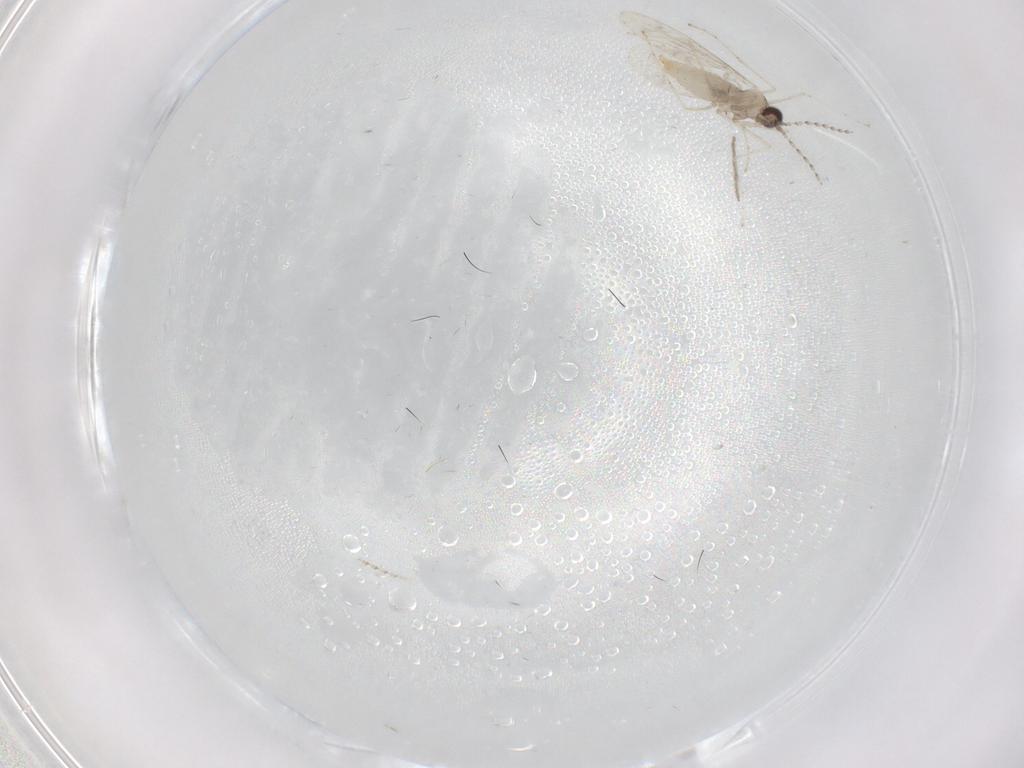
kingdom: Animalia
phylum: Arthropoda
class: Insecta
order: Diptera
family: Cecidomyiidae
